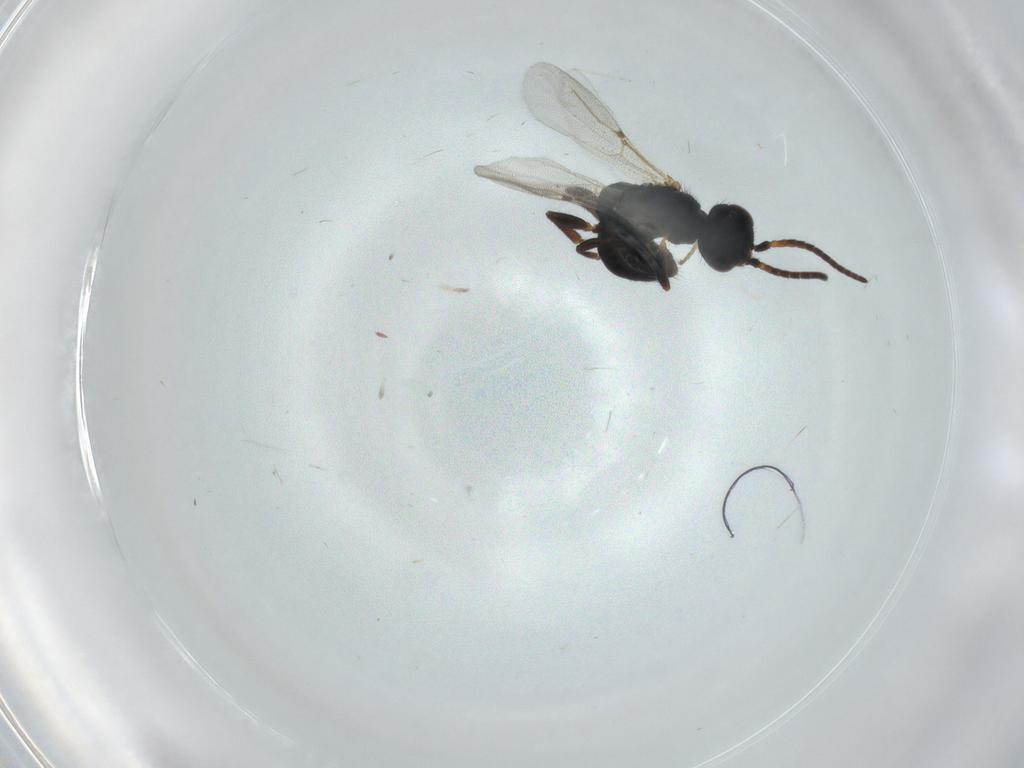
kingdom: Animalia
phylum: Arthropoda
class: Insecta
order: Hymenoptera
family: Bethylidae
